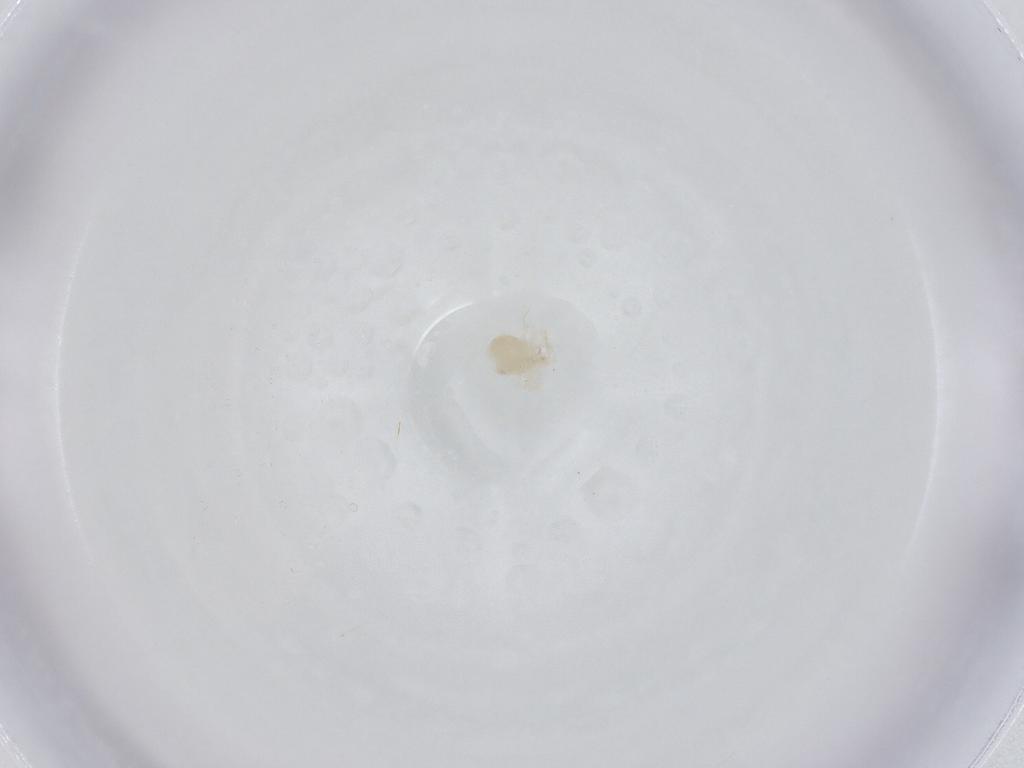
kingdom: Animalia
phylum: Arthropoda
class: Arachnida
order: Trombidiformes
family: Anystidae
